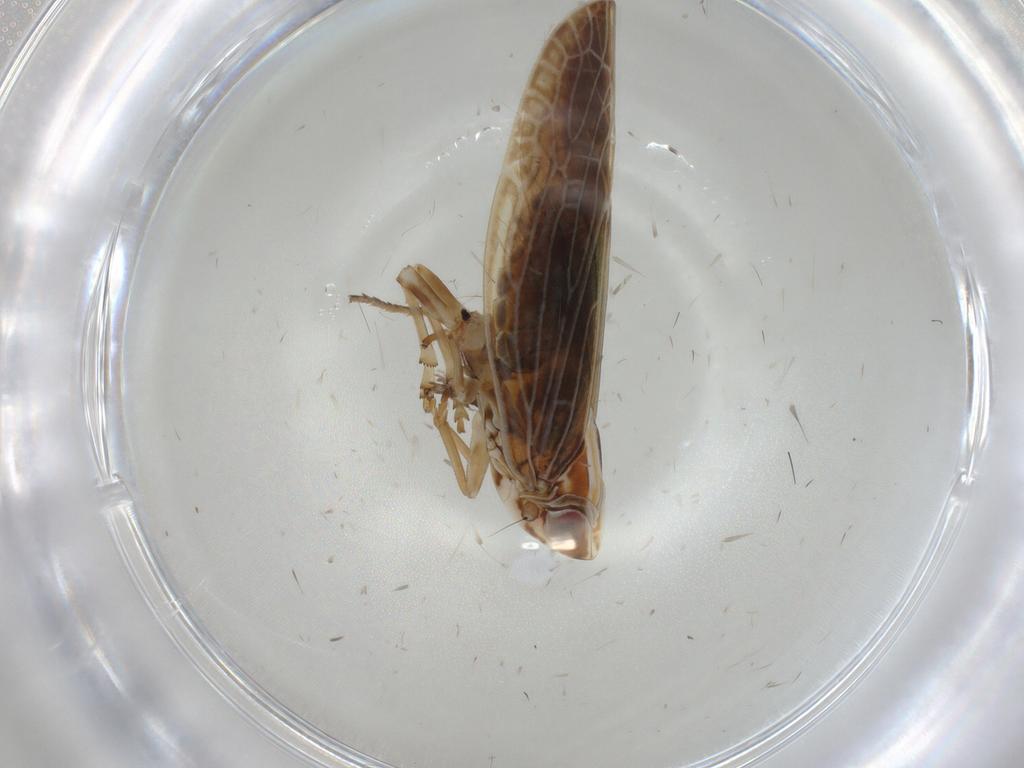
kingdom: Animalia
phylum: Arthropoda
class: Insecta
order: Hemiptera
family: Achilidae
